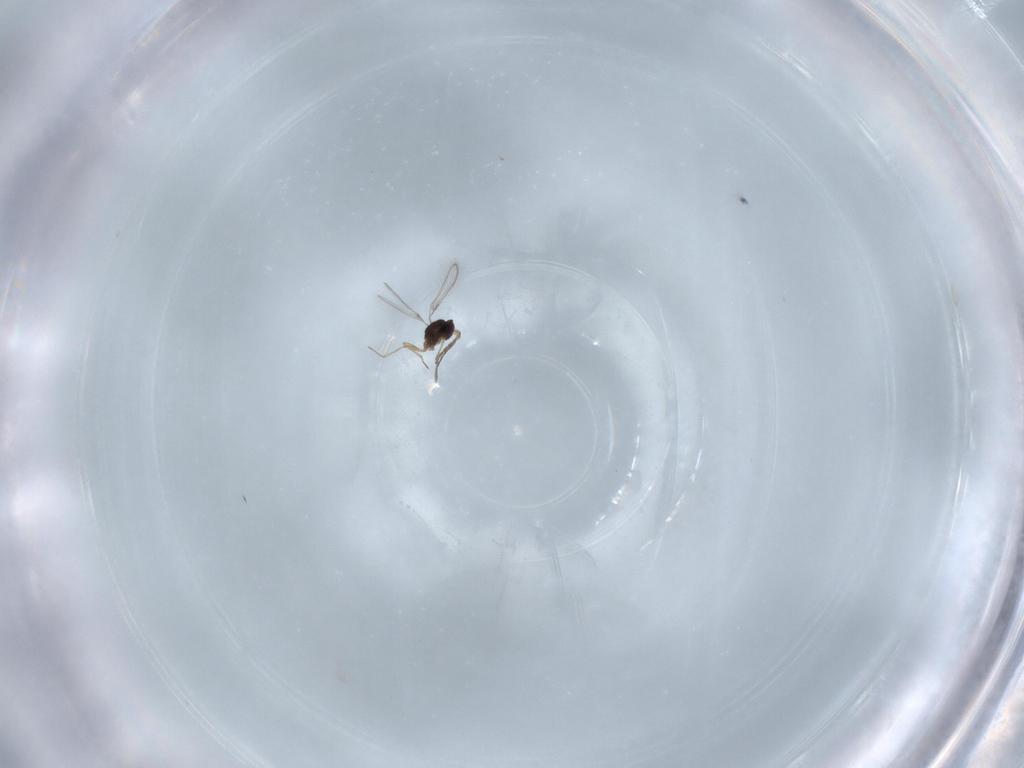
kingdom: Animalia
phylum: Arthropoda
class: Insecta
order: Hymenoptera
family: Mymaridae
